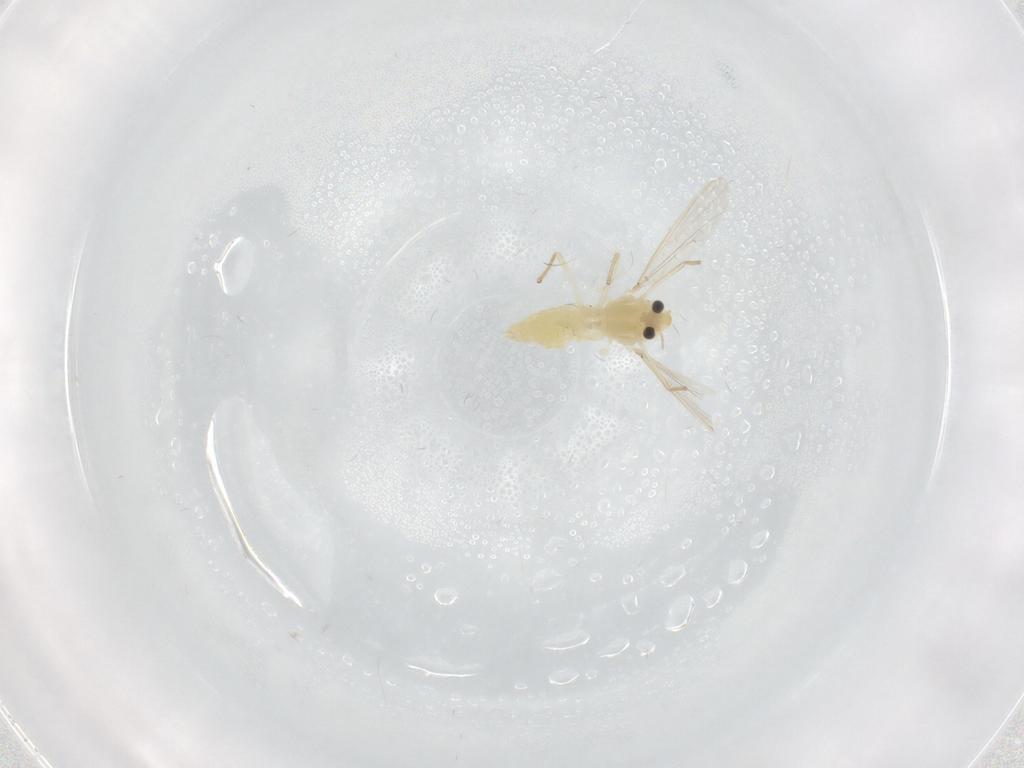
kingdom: Animalia
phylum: Arthropoda
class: Insecta
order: Diptera
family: Chironomidae
